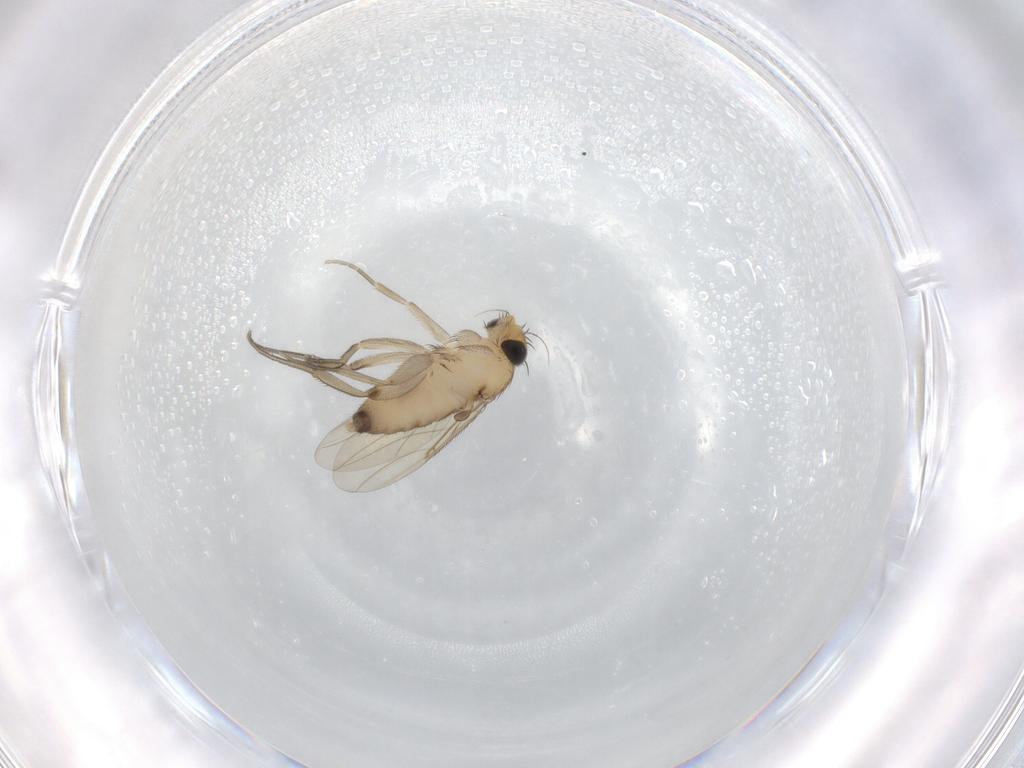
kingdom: Animalia
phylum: Arthropoda
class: Insecta
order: Diptera
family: Phoridae
